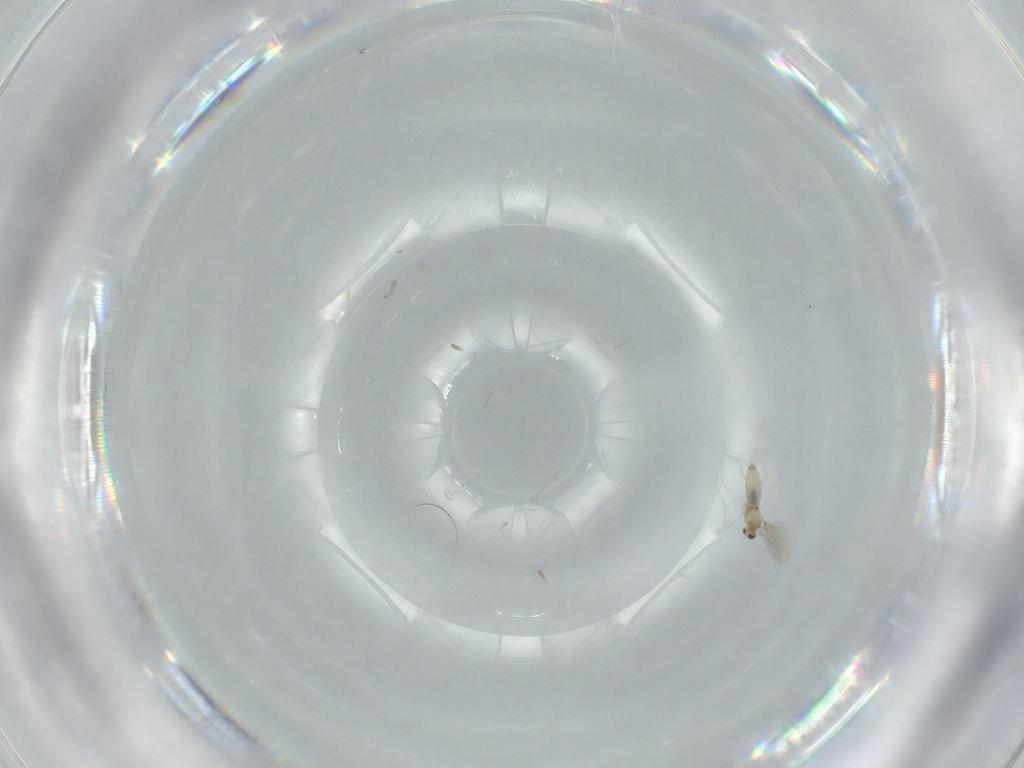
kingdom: Animalia
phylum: Arthropoda
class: Insecta
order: Diptera
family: Cecidomyiidae
